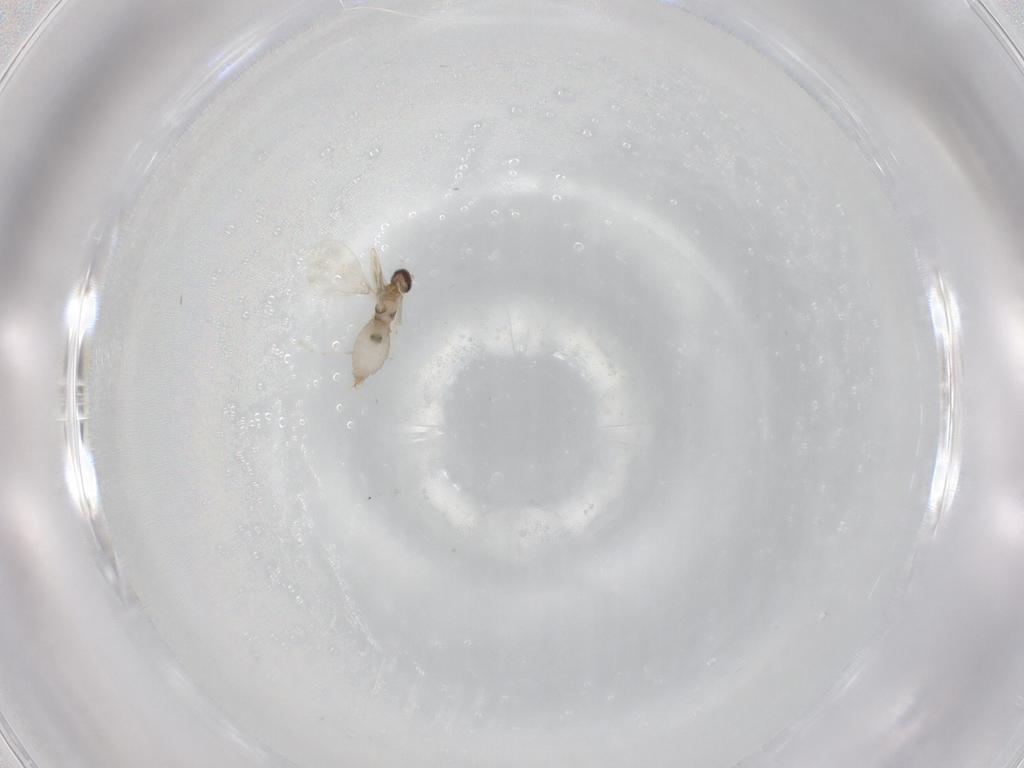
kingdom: Animalia
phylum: Arthropoda
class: Insecta
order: Diptera
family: Cecidomyiidae
